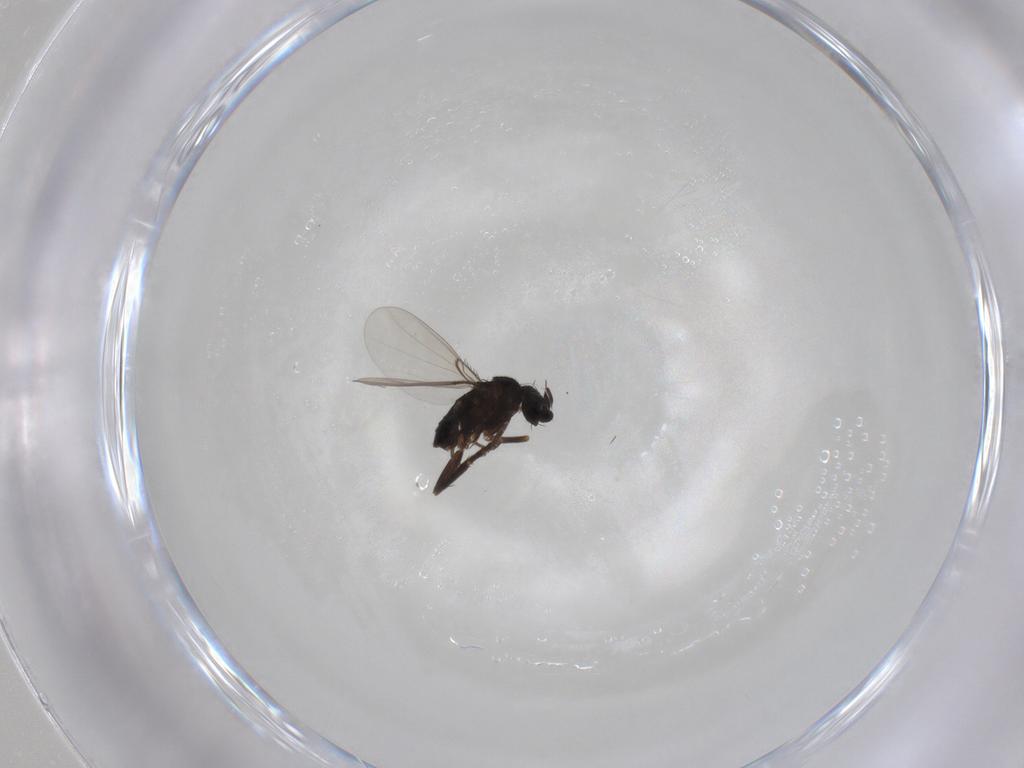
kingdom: Animalia
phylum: Arthropoda
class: Insecta
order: Diptera
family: Phoridae
